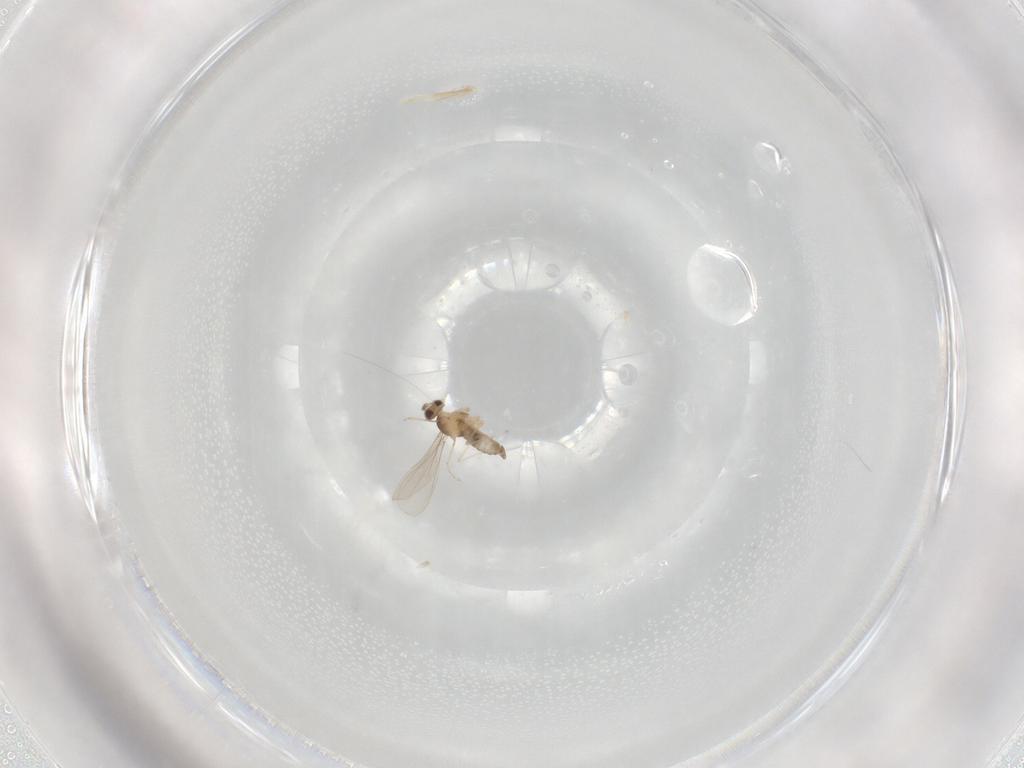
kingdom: Animalia
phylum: Arthropoda
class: Insecta
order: Diptera
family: Cecidomyiidae
